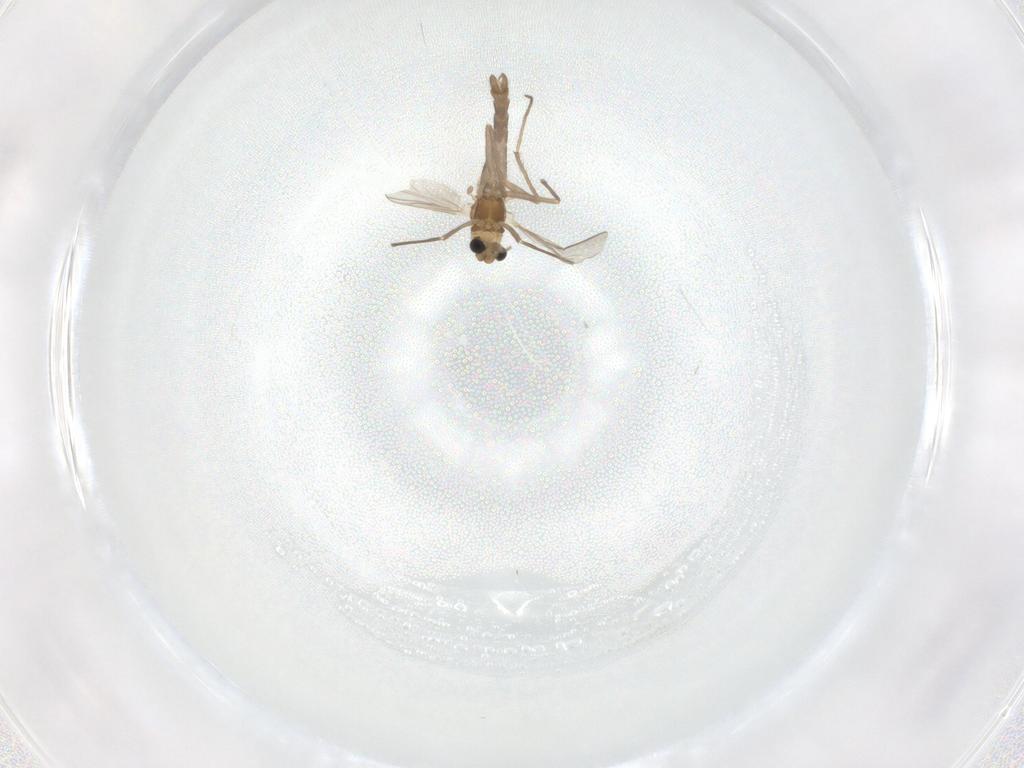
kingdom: Animalia
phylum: Arthropoda
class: Insecta
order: Diptera
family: Chironomidae
